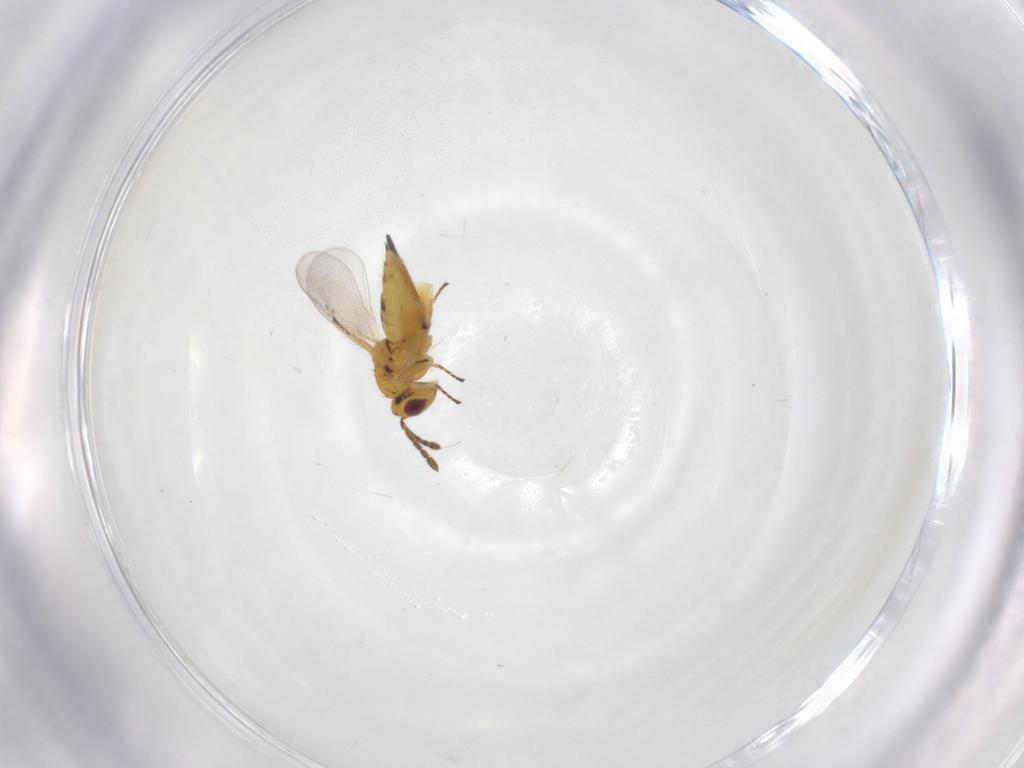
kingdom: Animalia
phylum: Arthropoda
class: Insecta
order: Hymenoptera
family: Eulophidae
